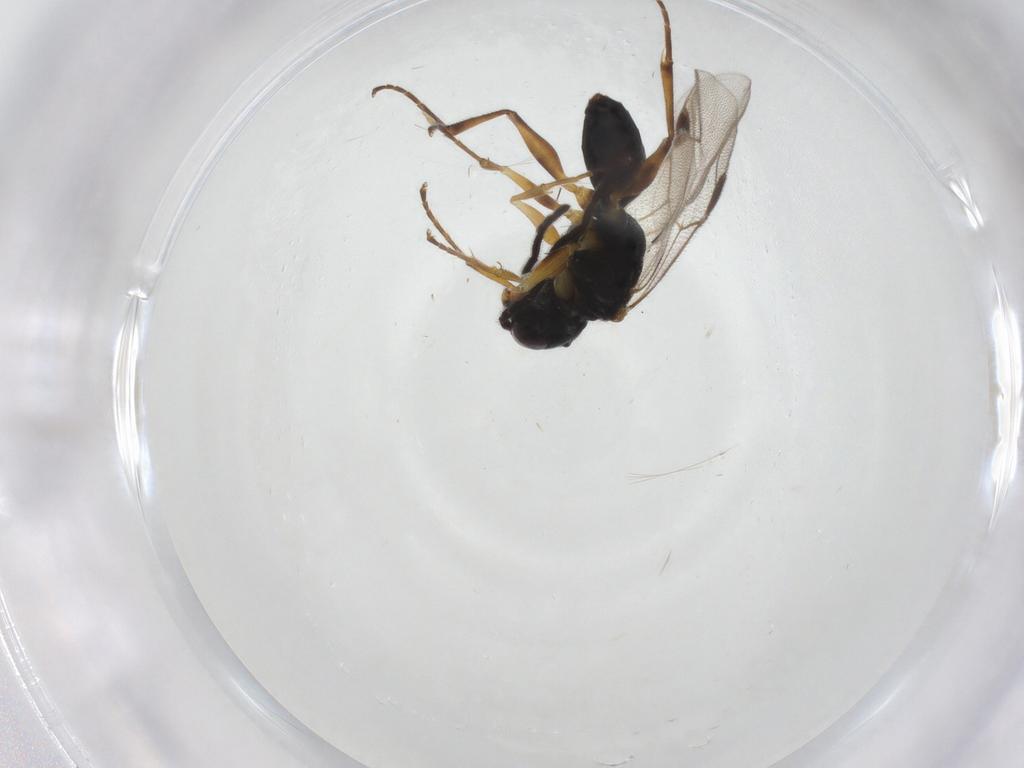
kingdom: Animalia
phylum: Arthropoda
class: Insecta
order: Hymenoptera
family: Dryinidae
